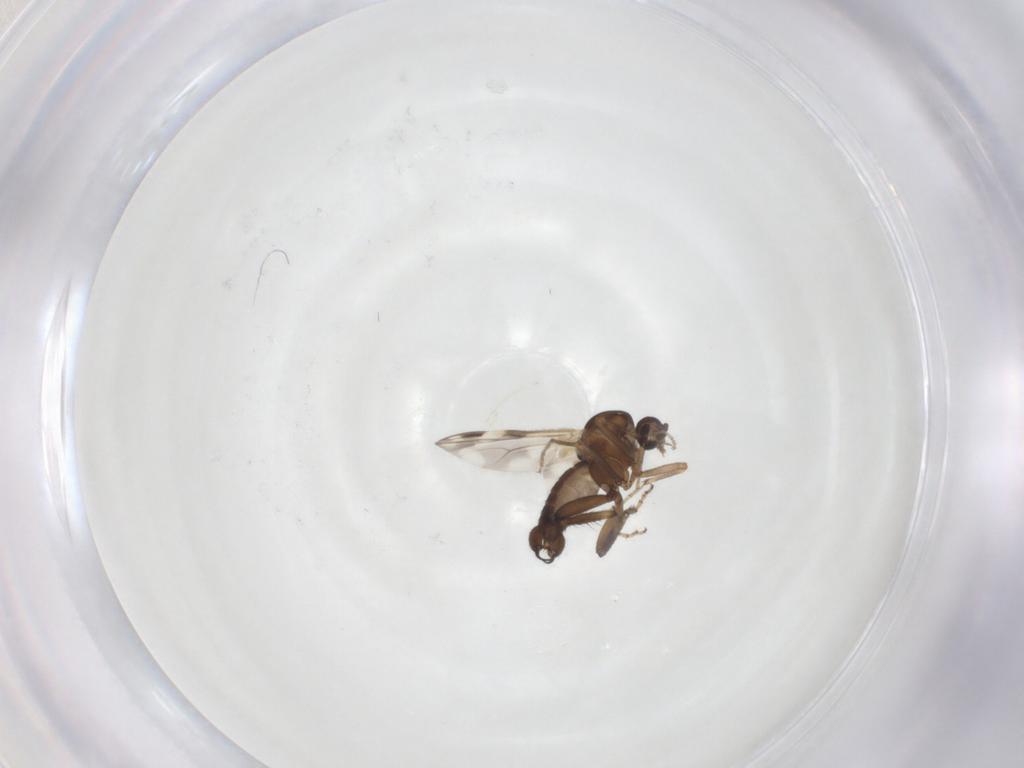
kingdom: Animalia
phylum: Arthropoda
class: Insecta
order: Diptera
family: Ceratopogonidae
